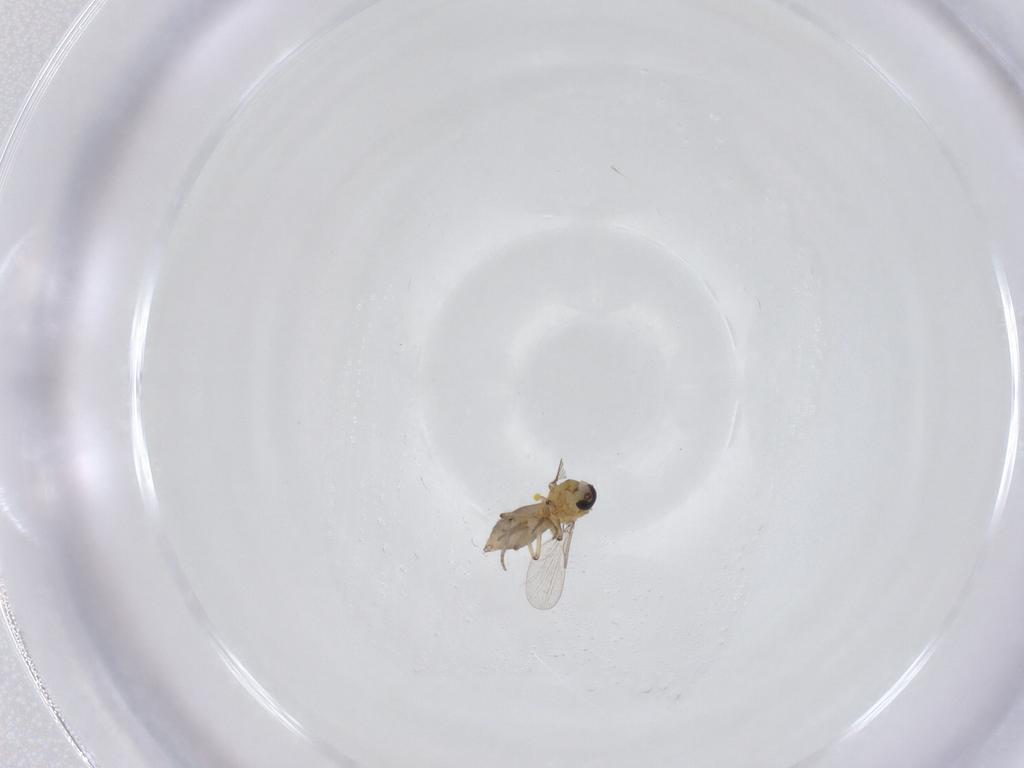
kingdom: Animalia
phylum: Arthropoda
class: Insecta
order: Diptera
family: Ceratopogonidae
